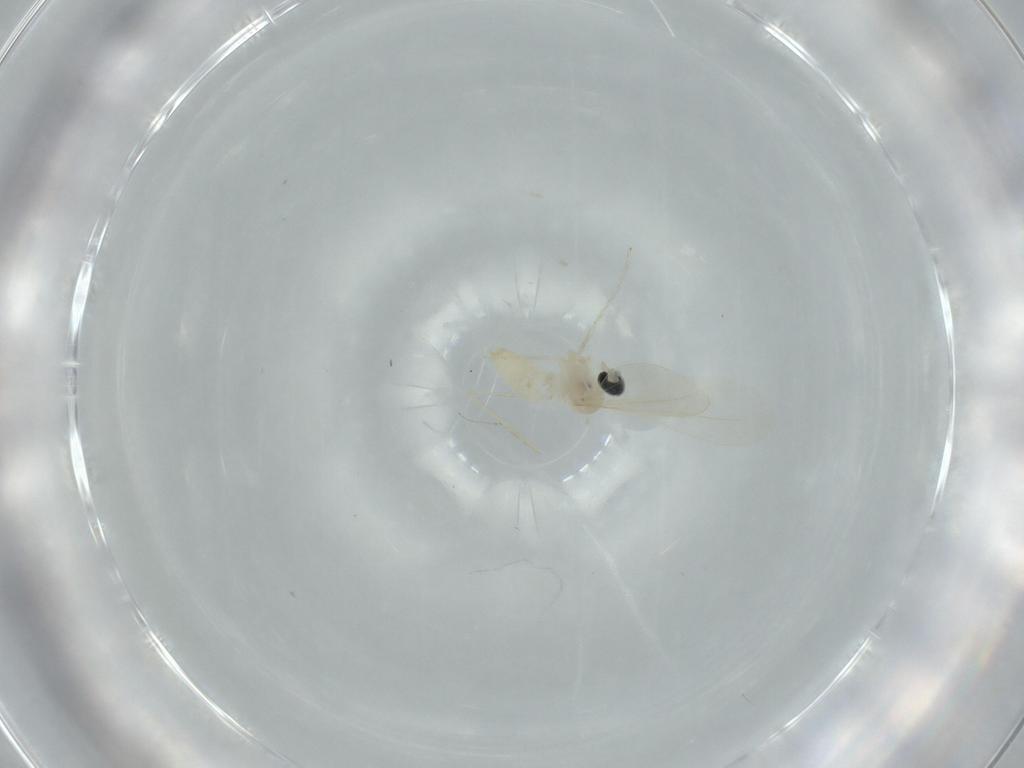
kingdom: Animalia
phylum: Arthropoda
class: Insecta
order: Diptera
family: Cecidomyiidae
